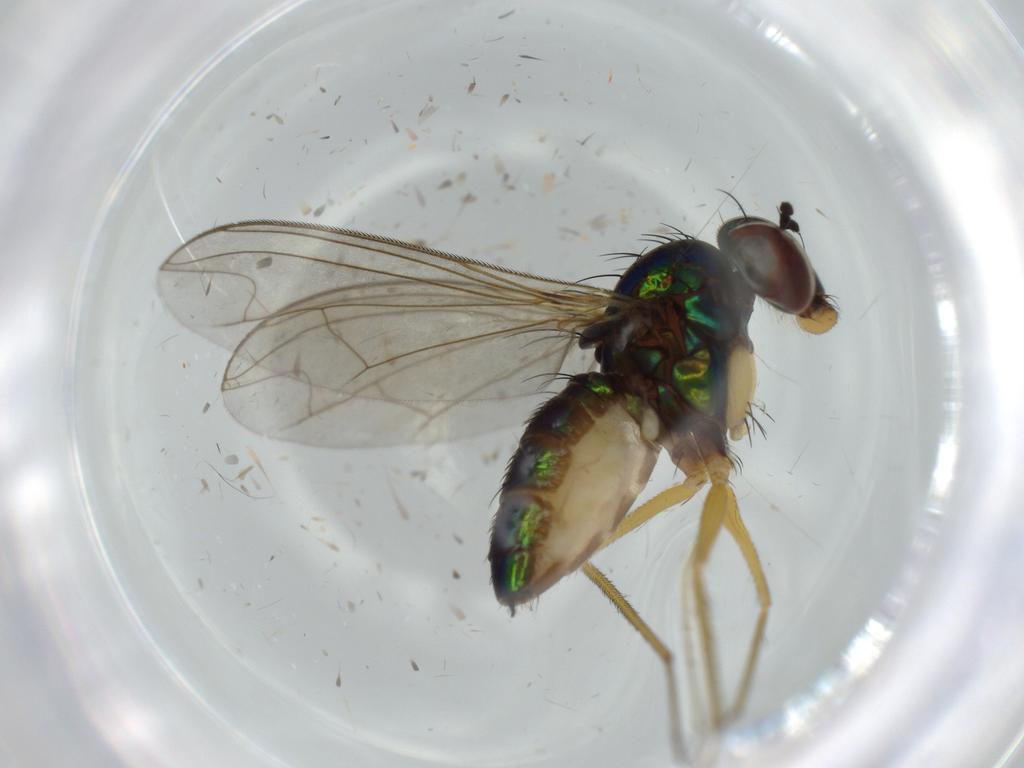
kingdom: Animalia
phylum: Arthropoda
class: Insecta
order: Diptera
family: Dolichopodidae
